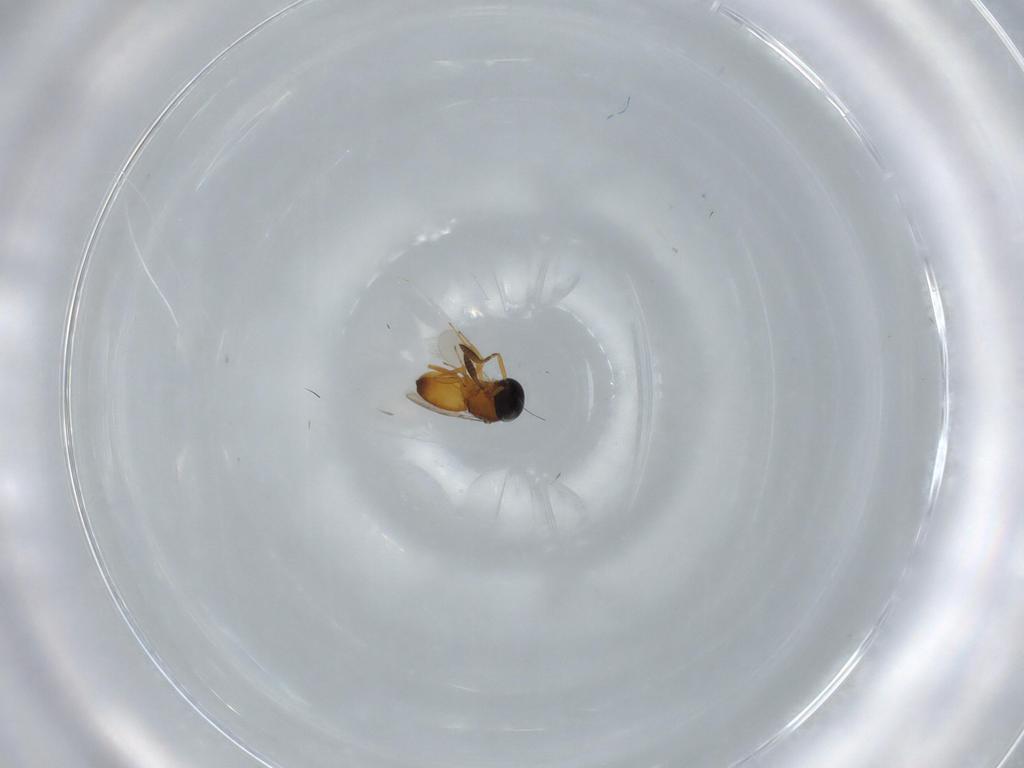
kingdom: Animalia
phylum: Arthropoda
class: Insecta
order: Hymenoptera
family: Scelionidae
